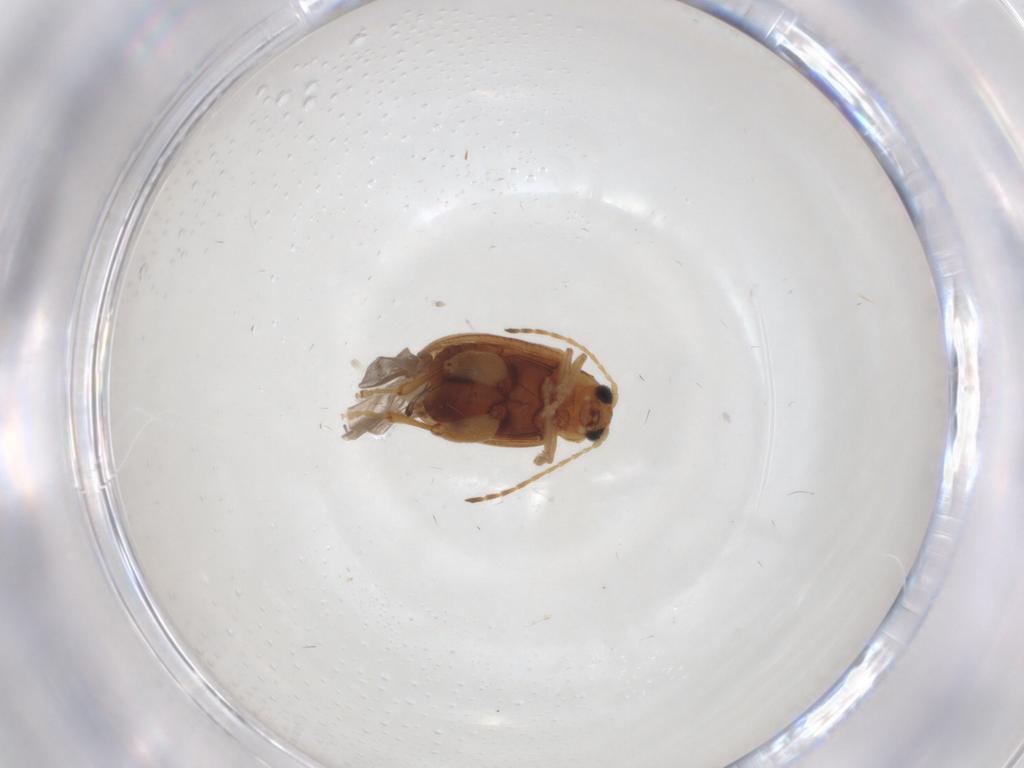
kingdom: Animalia
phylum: Arthropoda
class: Insecta
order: Coleoptera
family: Chrysomelidae
